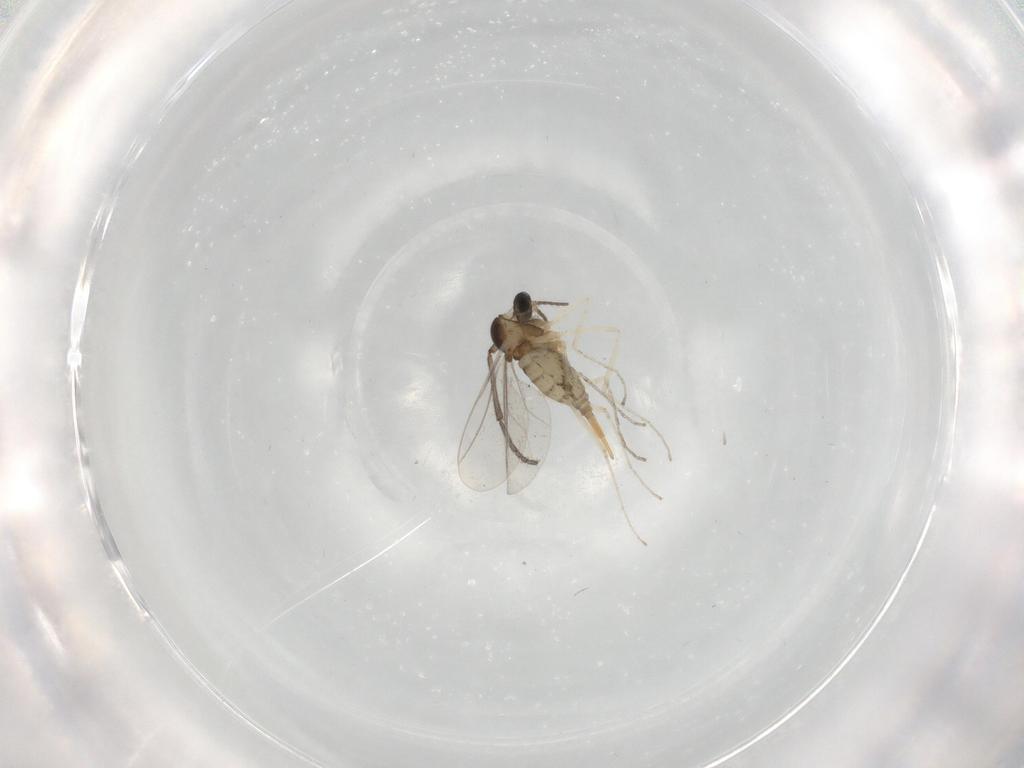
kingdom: Animalia
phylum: Arthropoda
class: Insecta
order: Diptera
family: Cecidomyiidae
